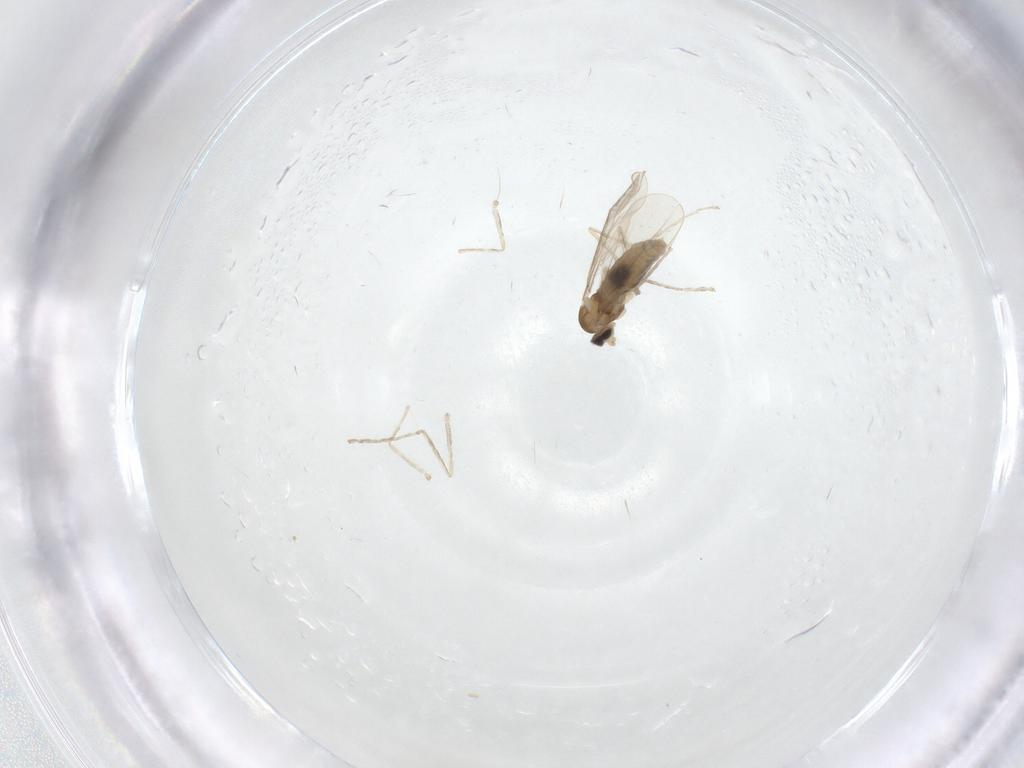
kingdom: Animalia
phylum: Arthropoda
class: Insecta
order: Diptera
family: Cecidomyiidae
